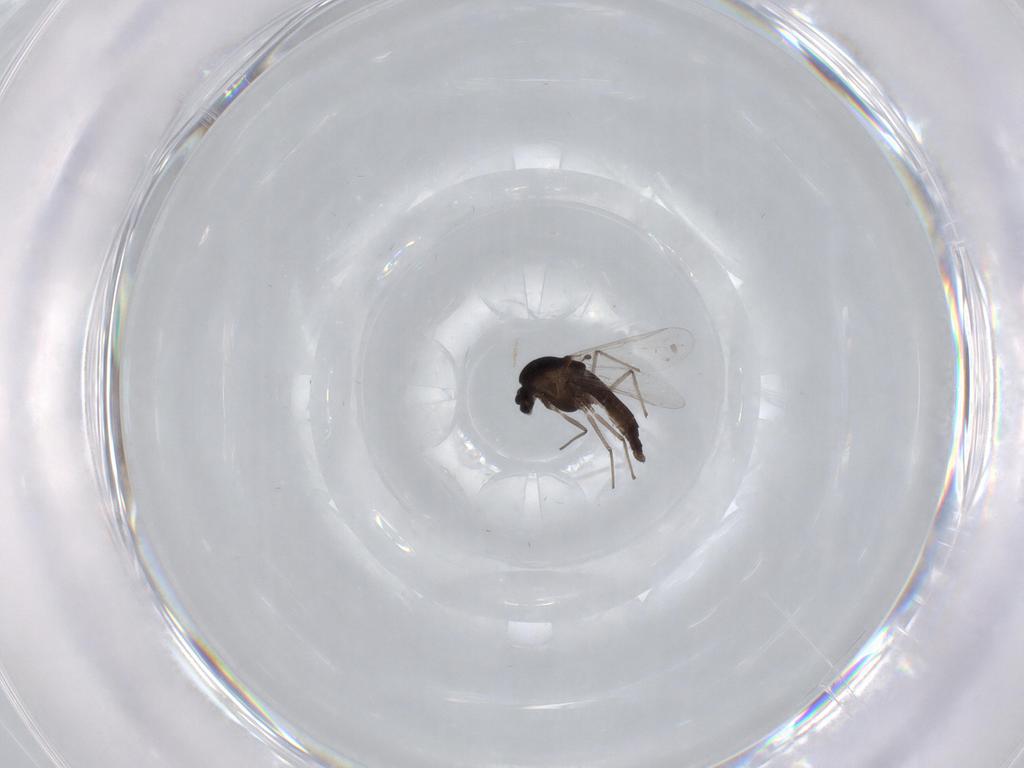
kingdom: Animalia
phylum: Arthropoda
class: Insecta
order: Diptera
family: Chironomidae
